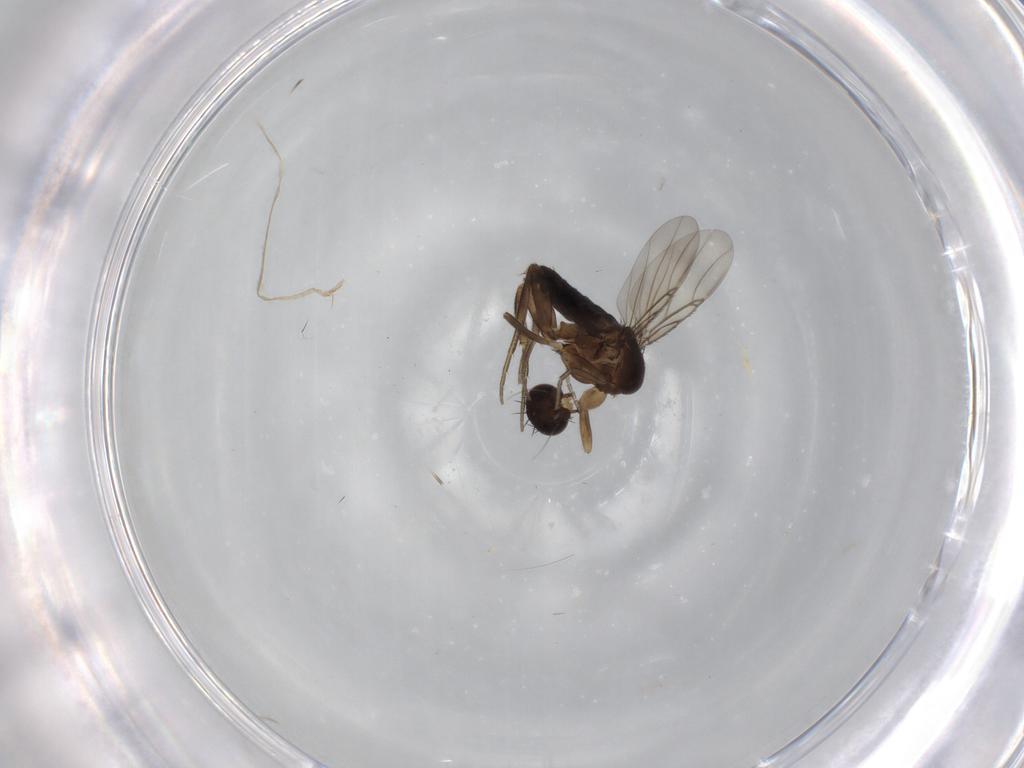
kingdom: Animalia
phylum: Arthropoda
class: Insecta
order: Diptera
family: Phoridae
